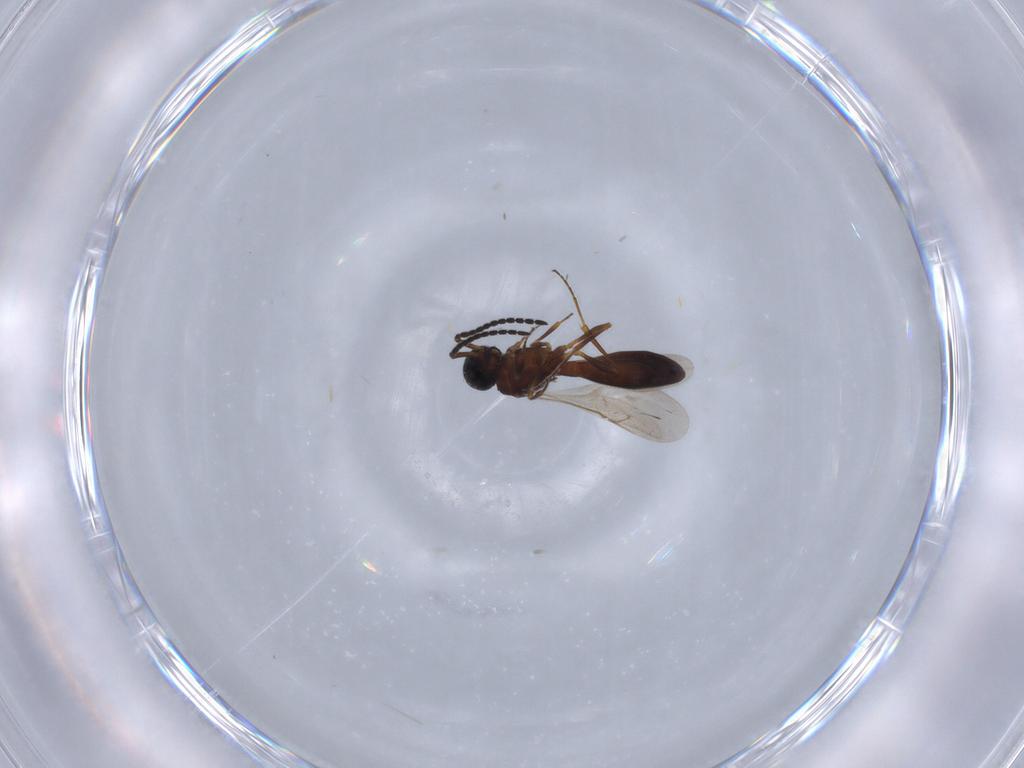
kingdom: Animalia
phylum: Arthropoda
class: Insecta
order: Hymenoptera
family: Scelionidae
